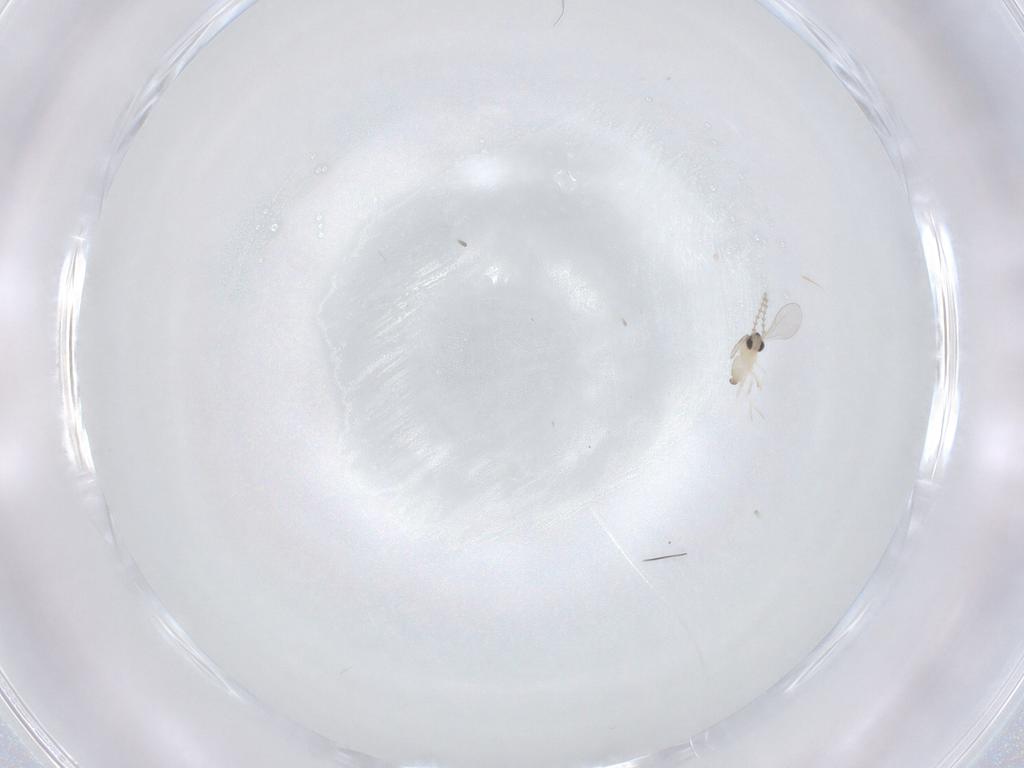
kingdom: Animalia
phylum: Arthropoda
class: Insecta
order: Diptera
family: Cecidomyiidae
